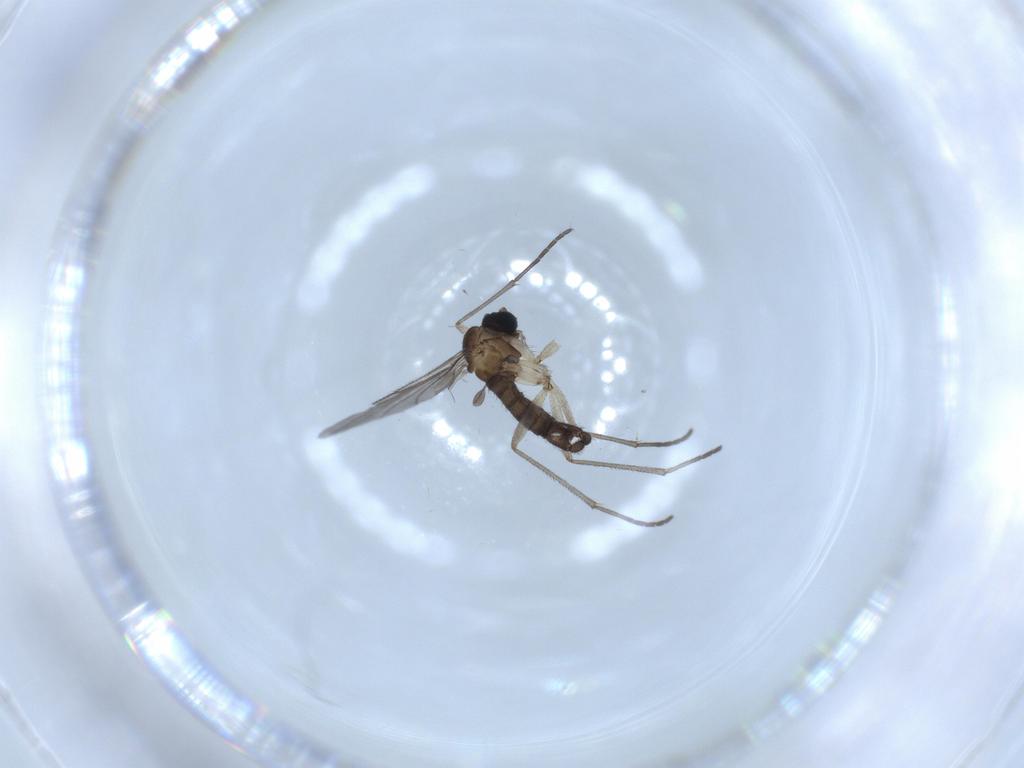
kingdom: Animalia
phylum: Arthropoda
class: Insecta
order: Diptera
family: Sciaridae
